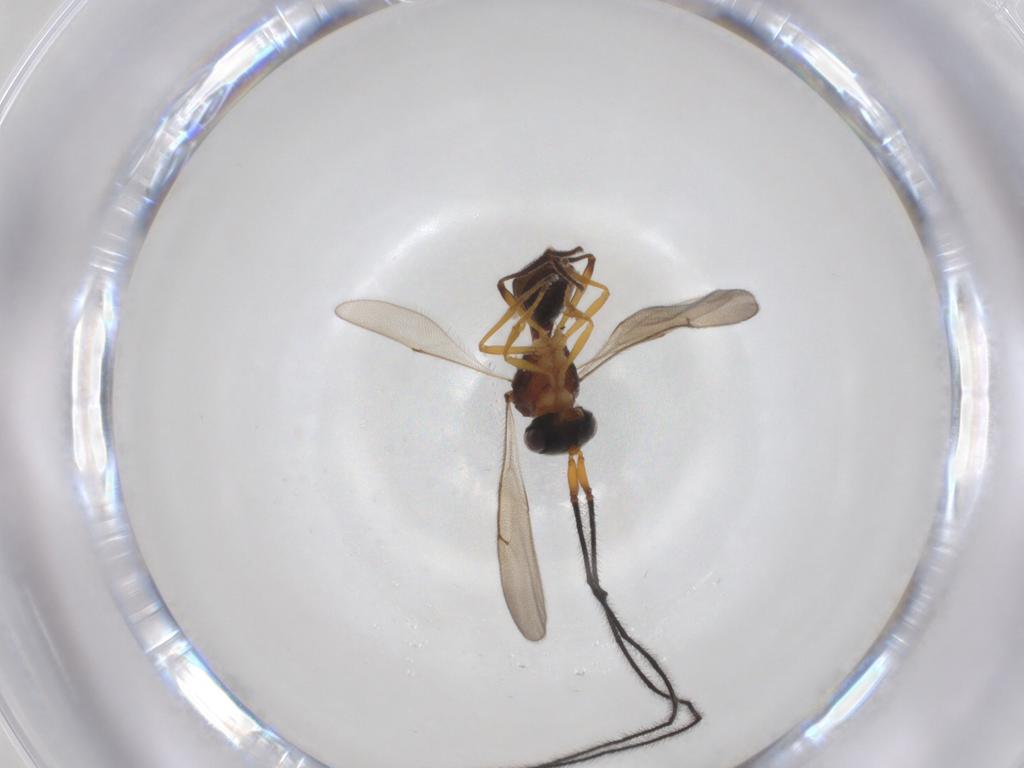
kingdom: Animalia
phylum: Arthropoda
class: Insecta
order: Hymenoptera
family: Scelionidae
